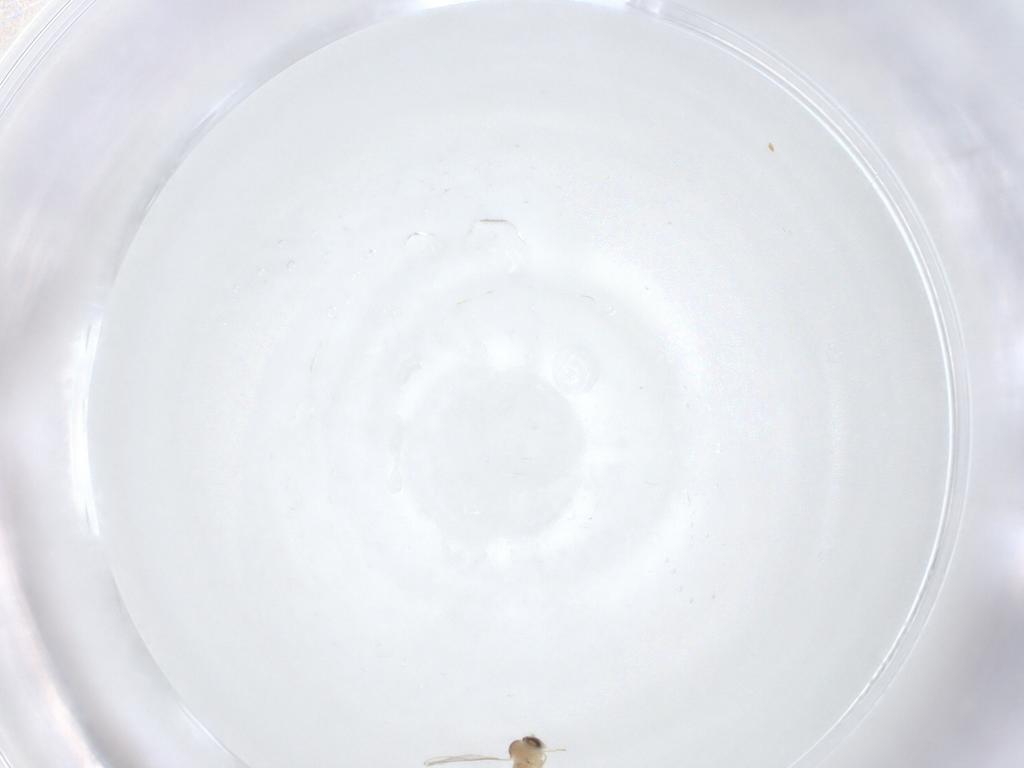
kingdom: Animalia
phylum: Arthropoda
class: Insecta
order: Diptera
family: Cecidomyiidae
